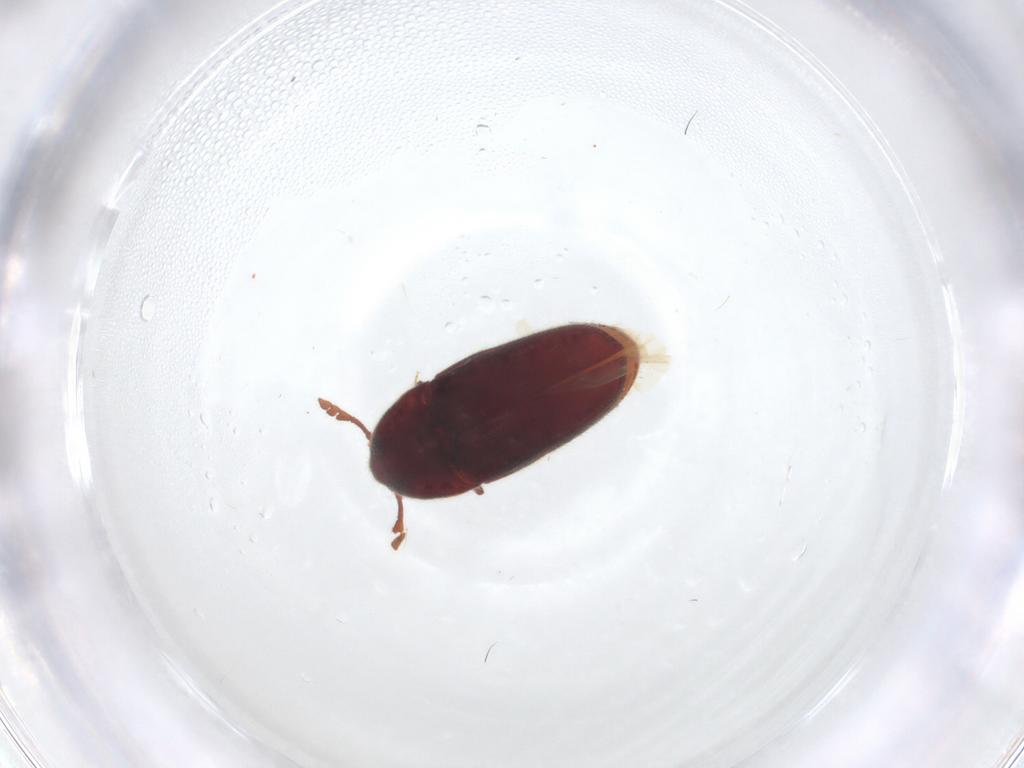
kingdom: Animalia
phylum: Arthropoda
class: Insecta
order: Coleoptera
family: Throscidae
